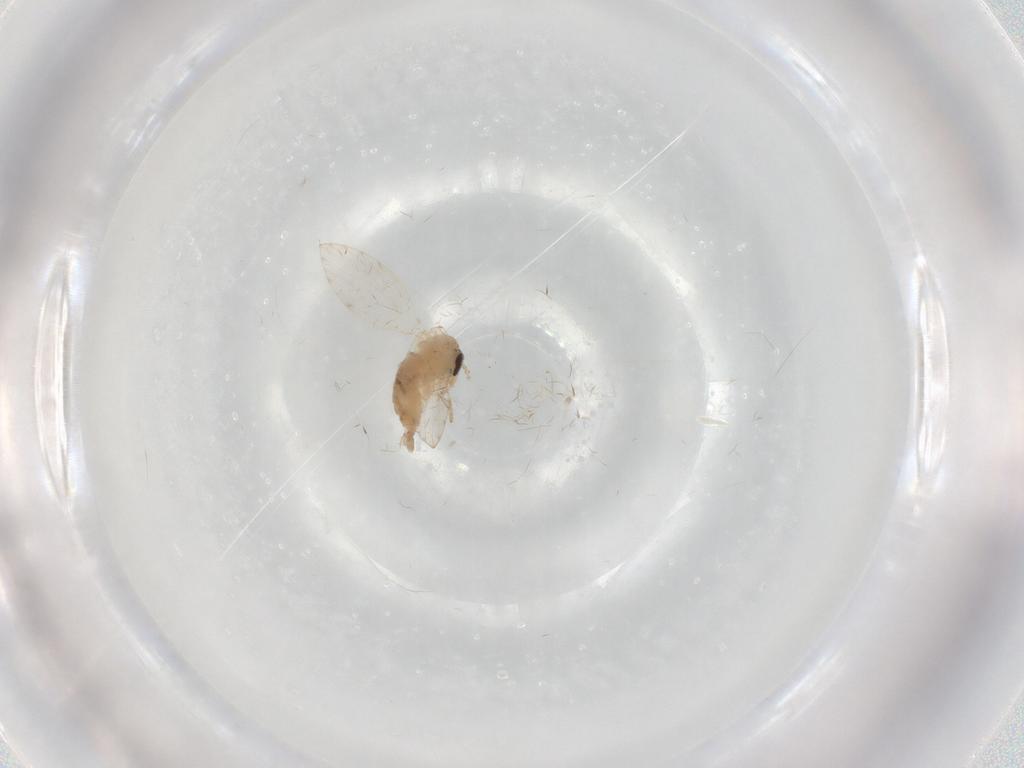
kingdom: Animalia
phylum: Arthropoda
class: Insecta
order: Diptera
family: Psychodidae
